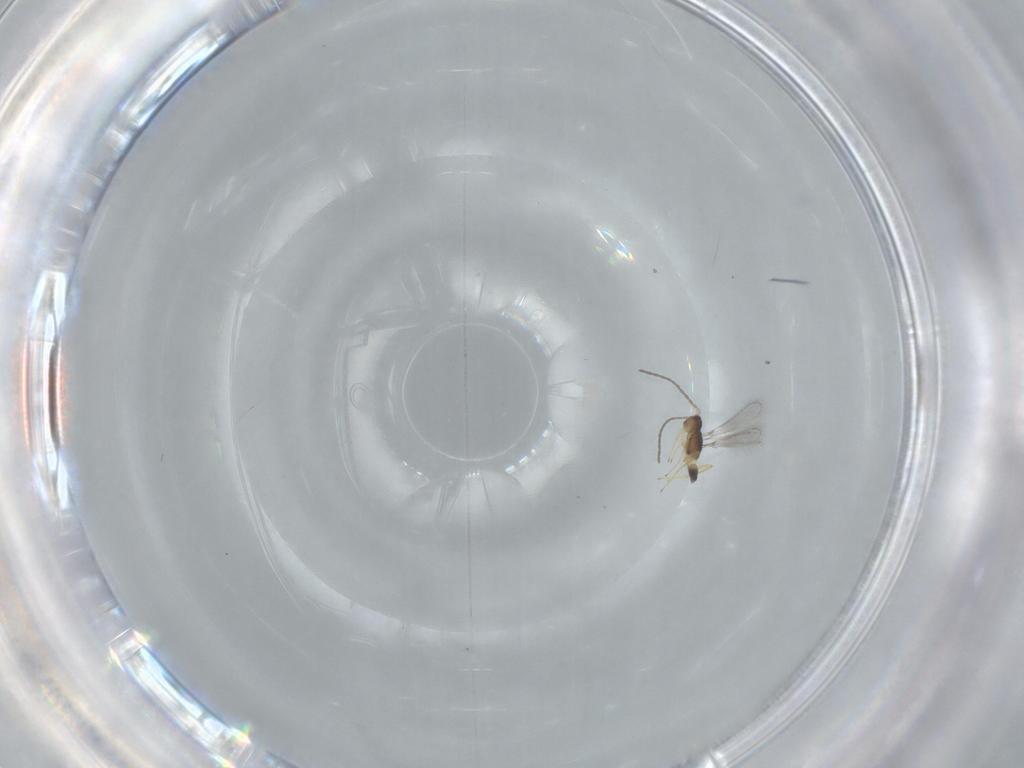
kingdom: Animalia
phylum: Arthropoda
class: Insecta
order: Hymenoptera
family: Mymaridae
